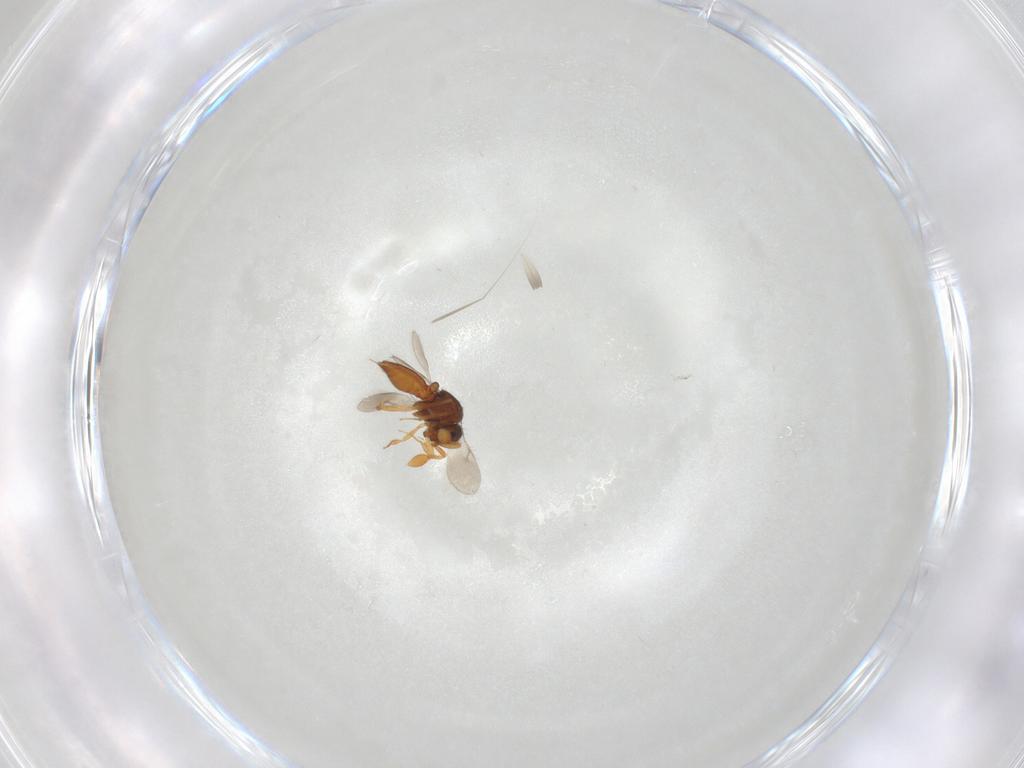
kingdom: Animalia
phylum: Arthropoda
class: Insecta
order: Hymenoptera
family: Scelionidae
